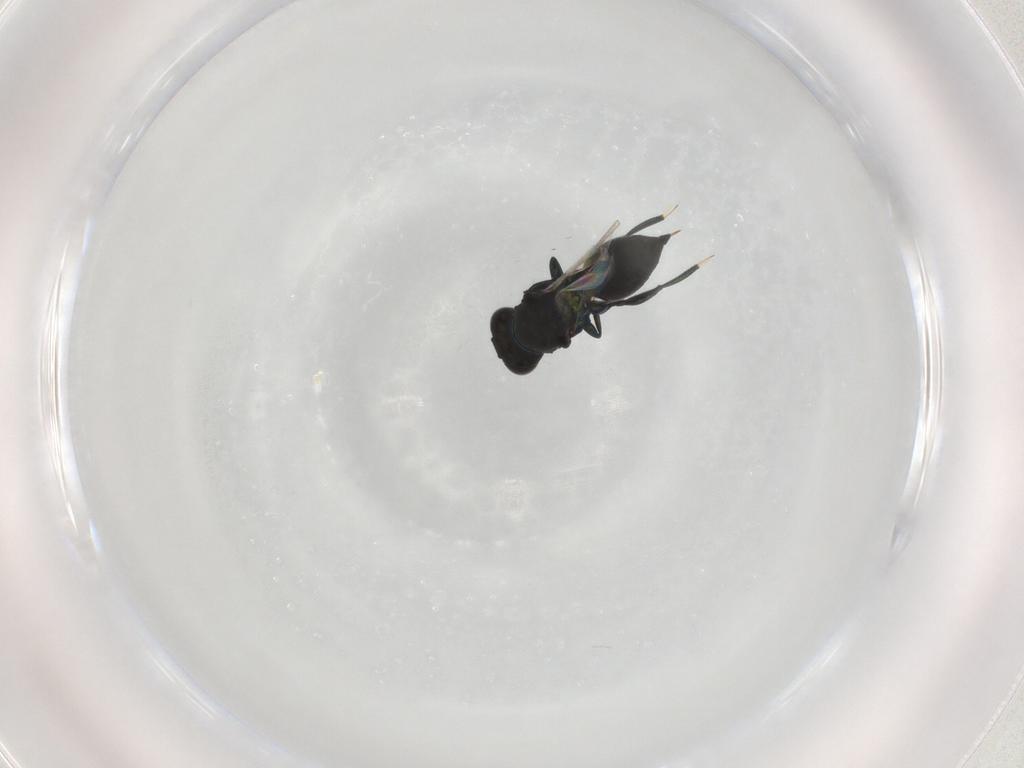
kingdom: Animalia
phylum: Arthropoda
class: Insecta
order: Hymenoptera
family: Eulophidae
